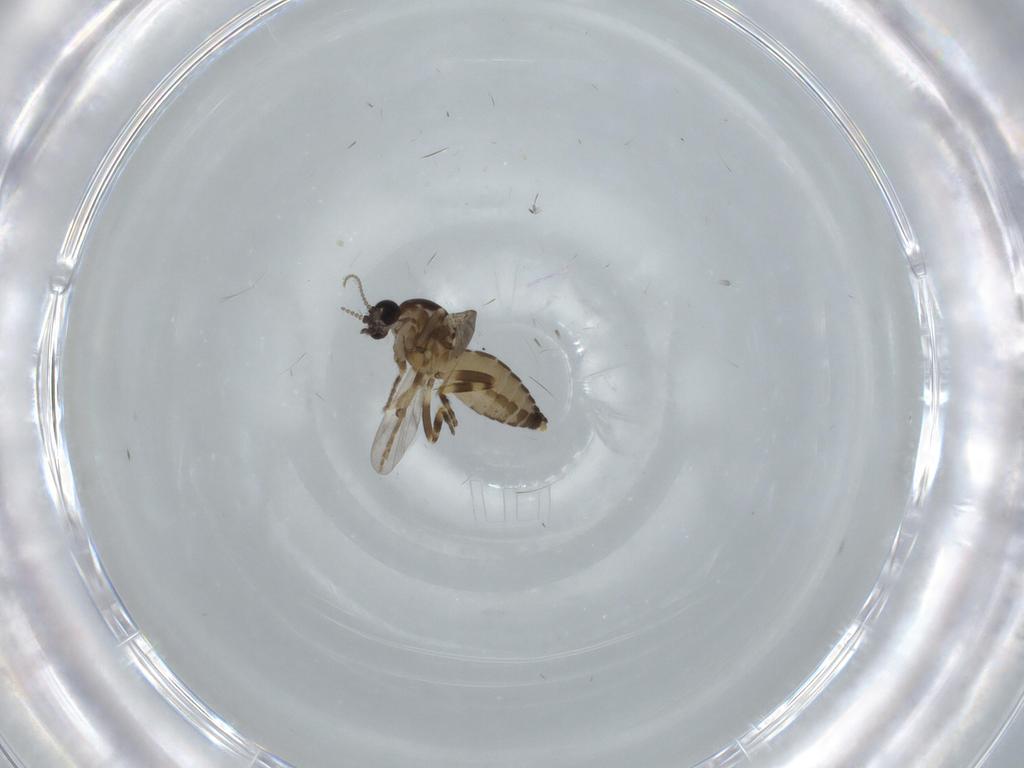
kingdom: Animalia
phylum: Arthropoda
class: Insecta
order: Diptera
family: Ceratopogonidae
